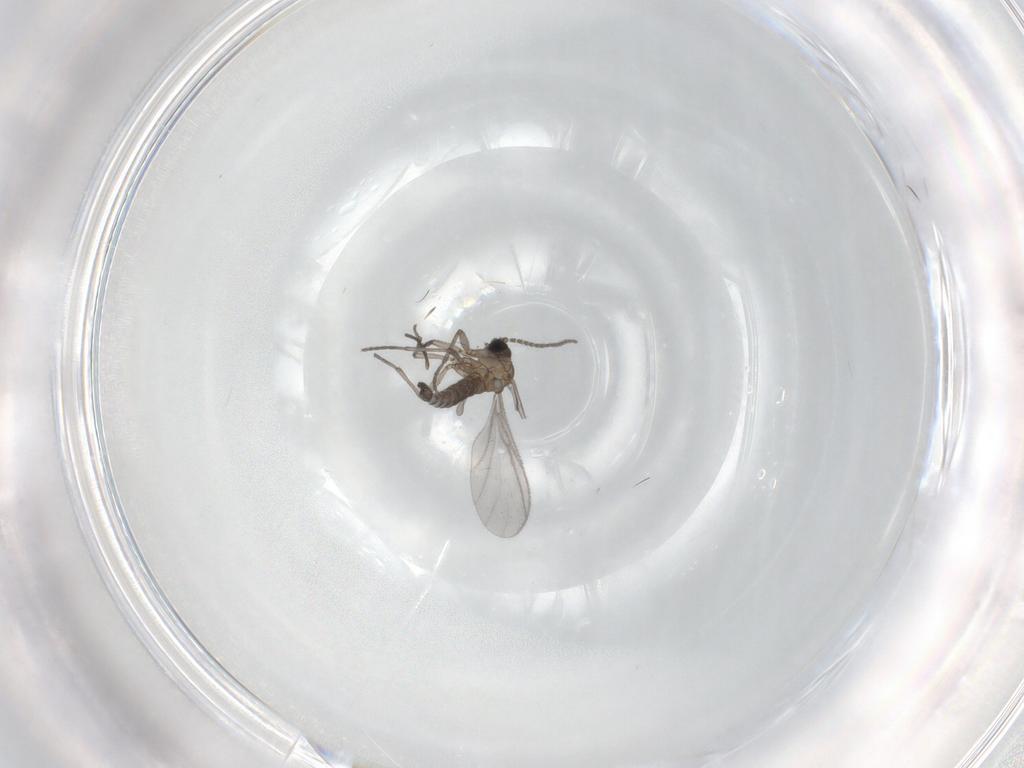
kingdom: Animalia
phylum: Arthropoda
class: Insecta
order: Diptera
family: Sciaridae
